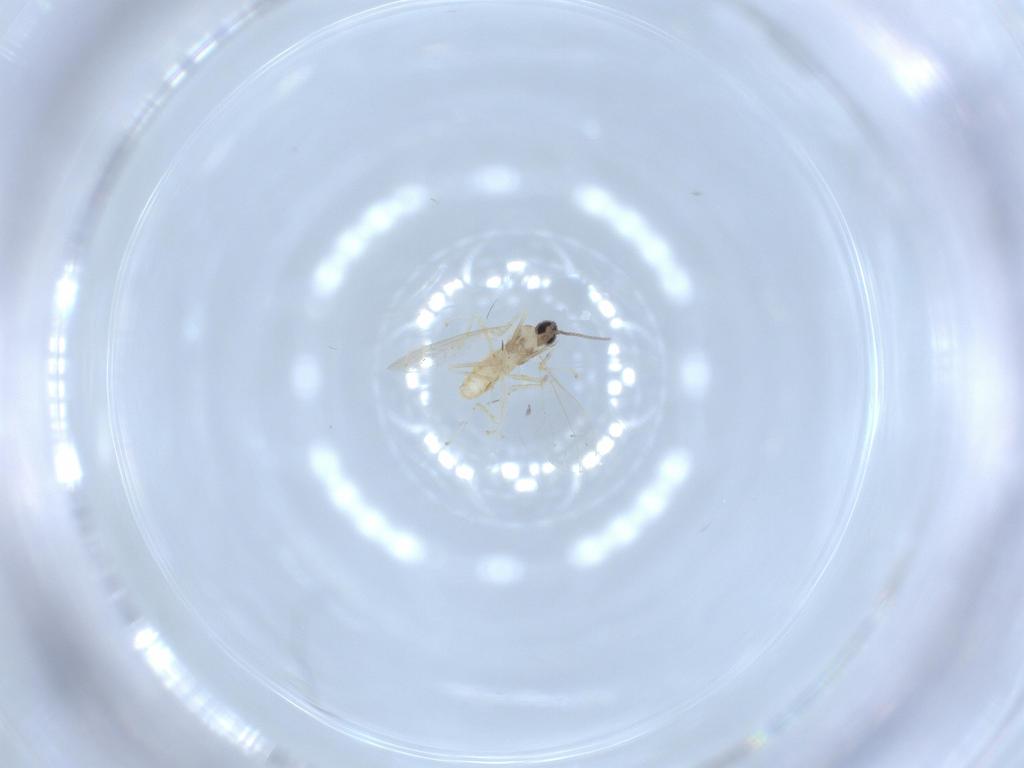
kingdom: Animalia
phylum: Arthropoda
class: Insecta
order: Diptera
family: Cecidomyiidae
